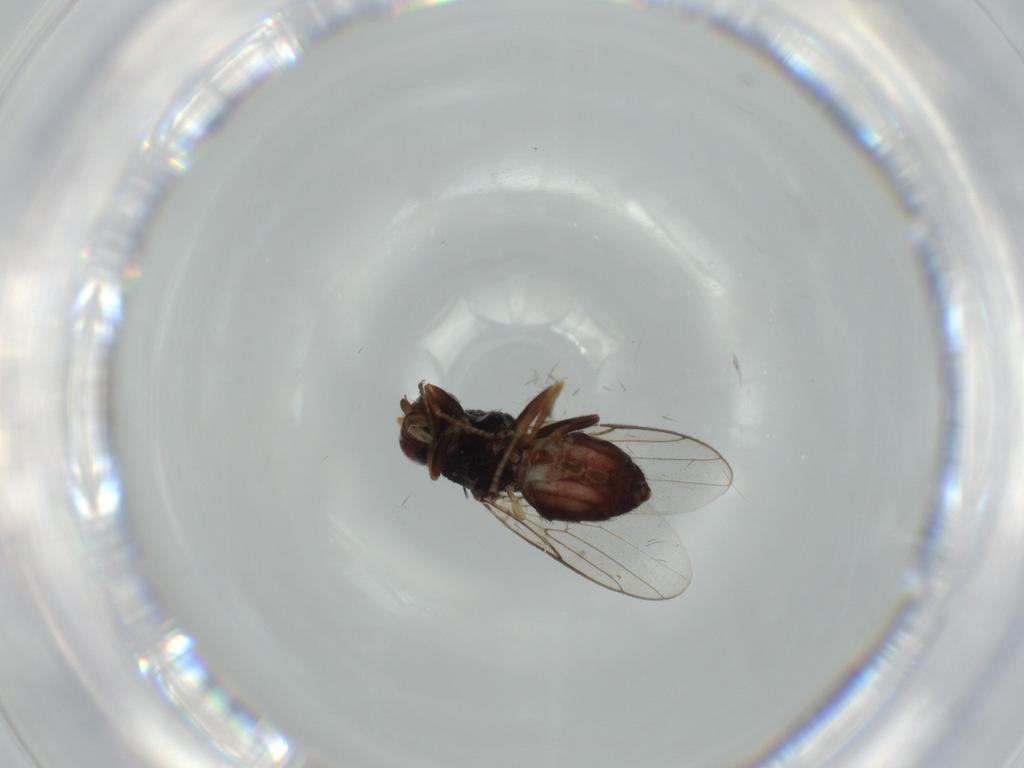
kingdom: Animalia
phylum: Arthropoda
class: Insecta
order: Diptera
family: Chloropidae
